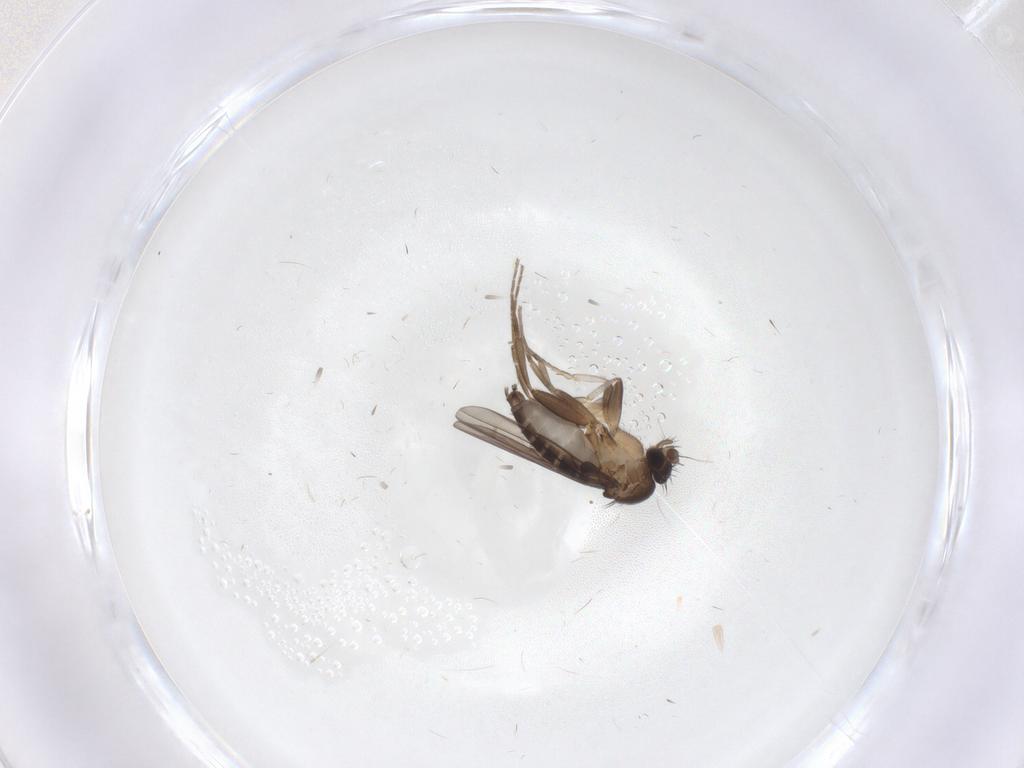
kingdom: Animalia
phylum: Arthropoda
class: Insecta
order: Diptera
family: Phoridae
